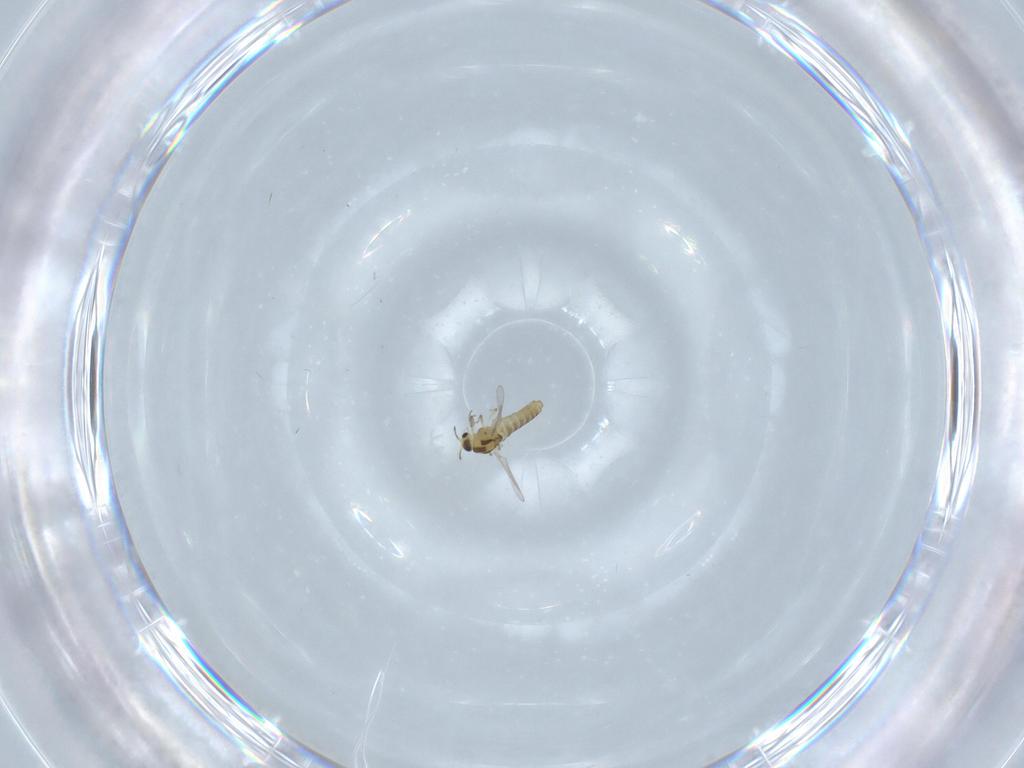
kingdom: Animalia
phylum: Arthropoda
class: Insecta
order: Diptera
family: Chironomidae
